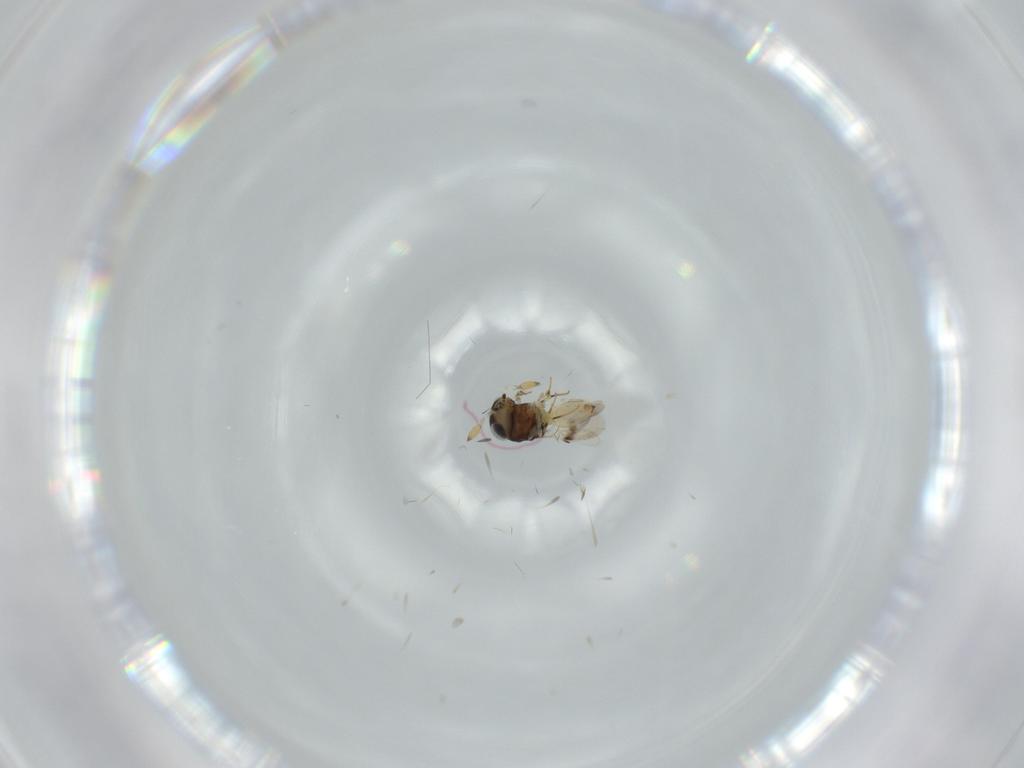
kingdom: Animalia
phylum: Arthropoda
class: Insecta
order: Hymenoptera
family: Scelionidae
